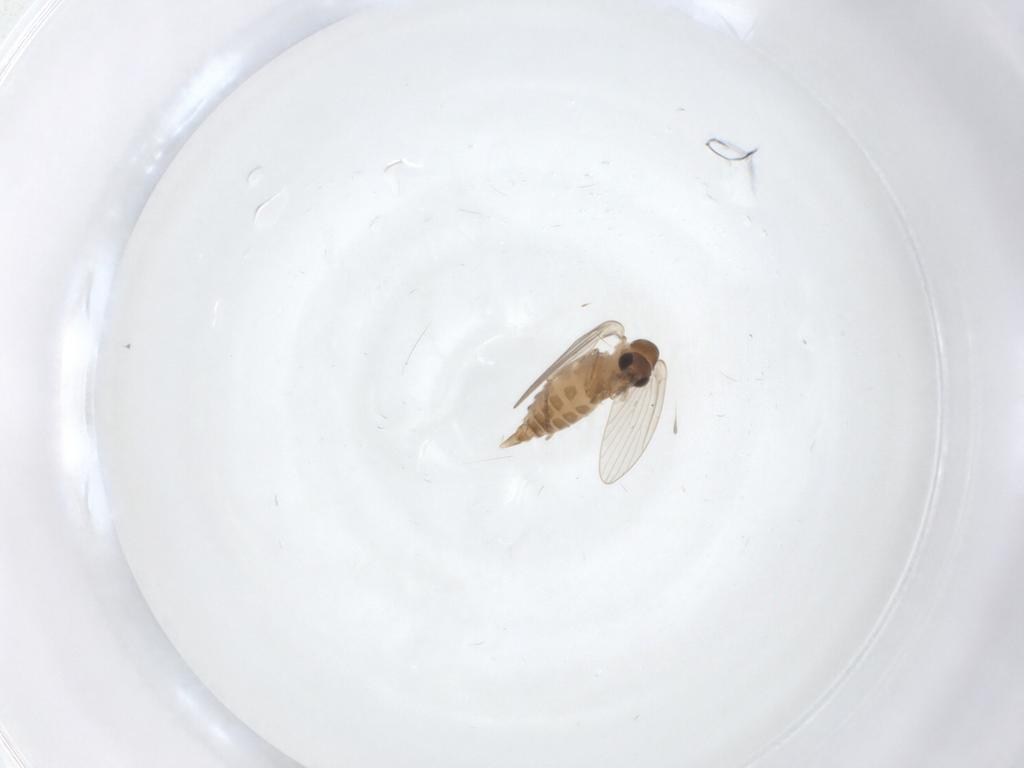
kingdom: Animalia
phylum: Arthropoda
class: Insecta
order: Diptera
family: Psychodidae
